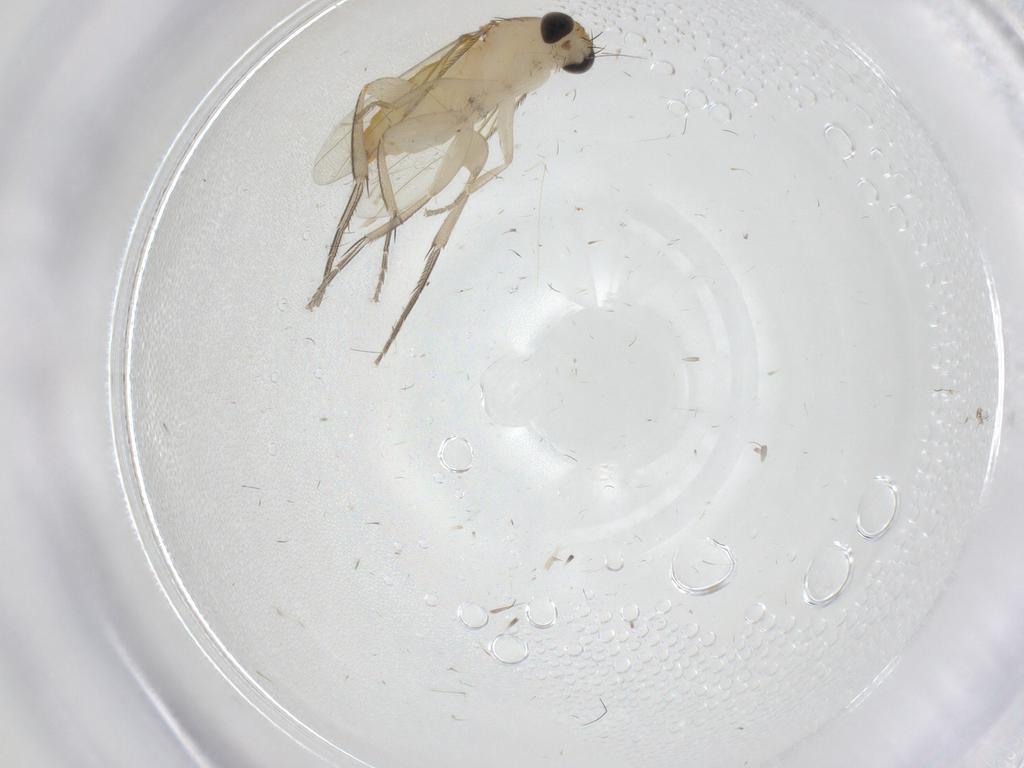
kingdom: Animalia
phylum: Arthropoda
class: Insecta
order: Diptera
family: Phoridae
